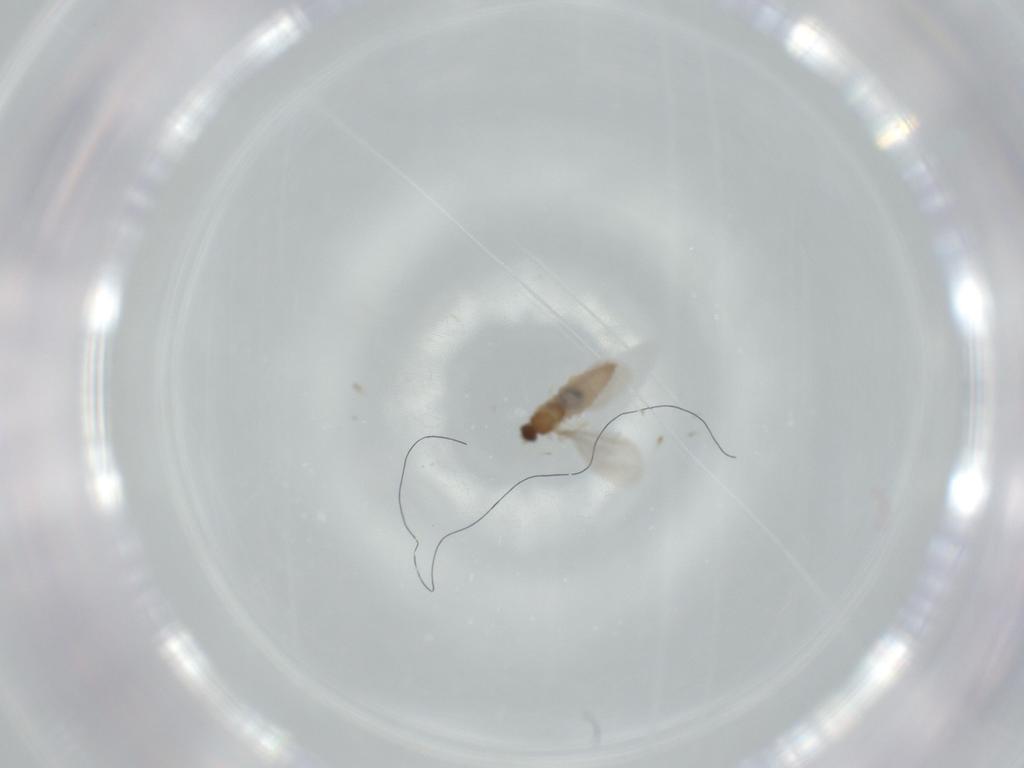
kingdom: Animalia
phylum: Arthropoda
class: Insecta
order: Diptera
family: Cecidomyiidae
